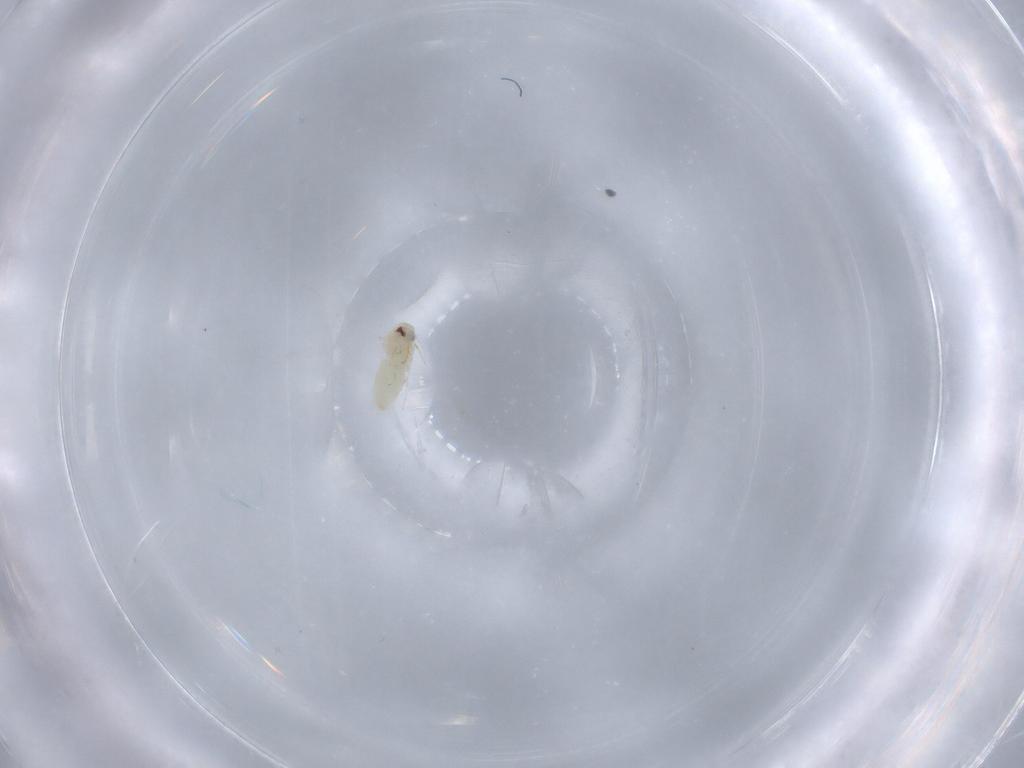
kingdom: Animalia
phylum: Arthropoda
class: Insecta
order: Hemiptera
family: Aleyrodidae
